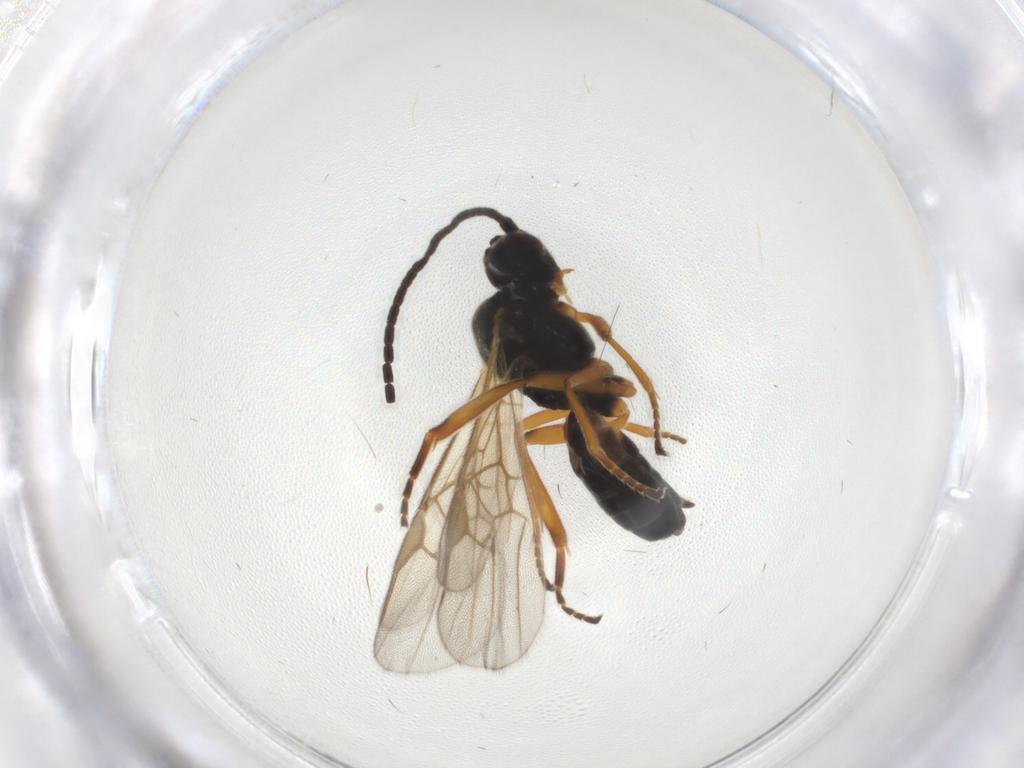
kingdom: Animalia
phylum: Arthropoda
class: Insecta
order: Hymenoptera
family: Braconidae
